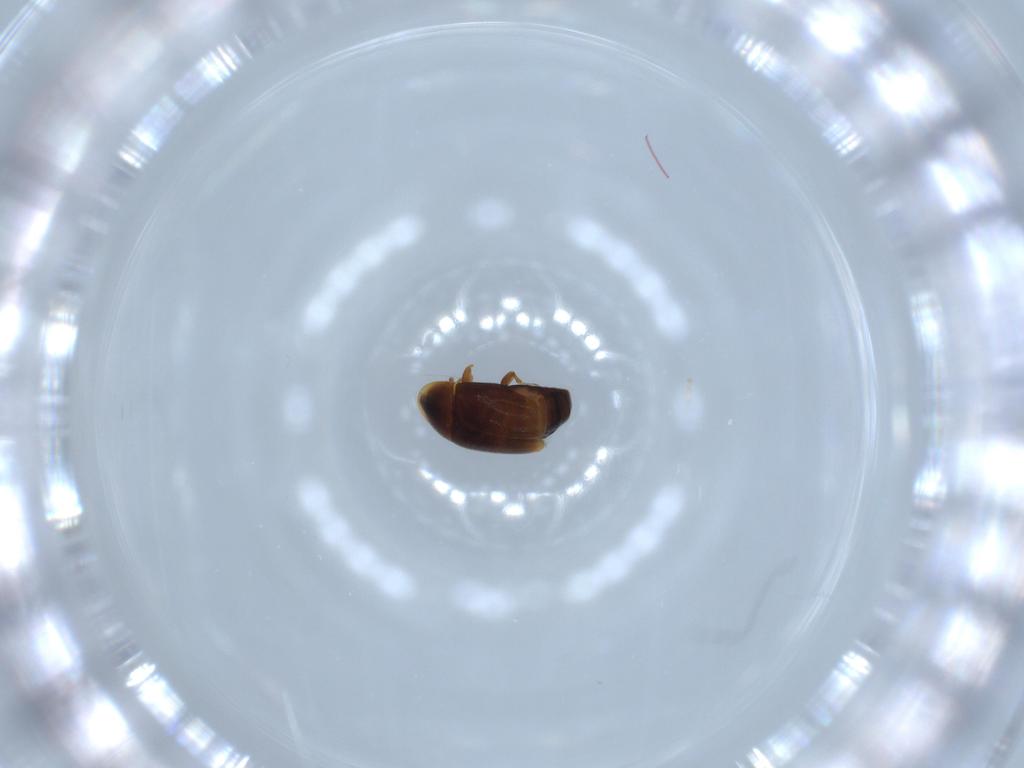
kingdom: Animalia
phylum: Arthropoda
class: Insecta
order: Coleoptera
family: Corylophidae
